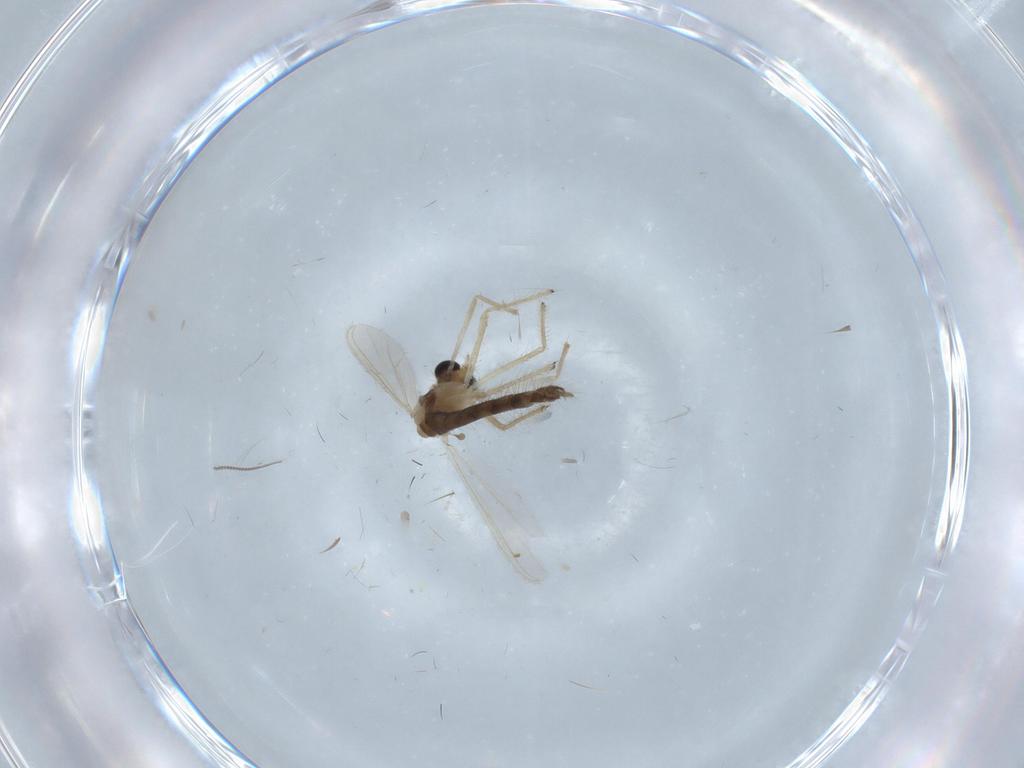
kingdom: Animalia
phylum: Arthropoda
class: Insecta
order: Diptera
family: Chironomidae
